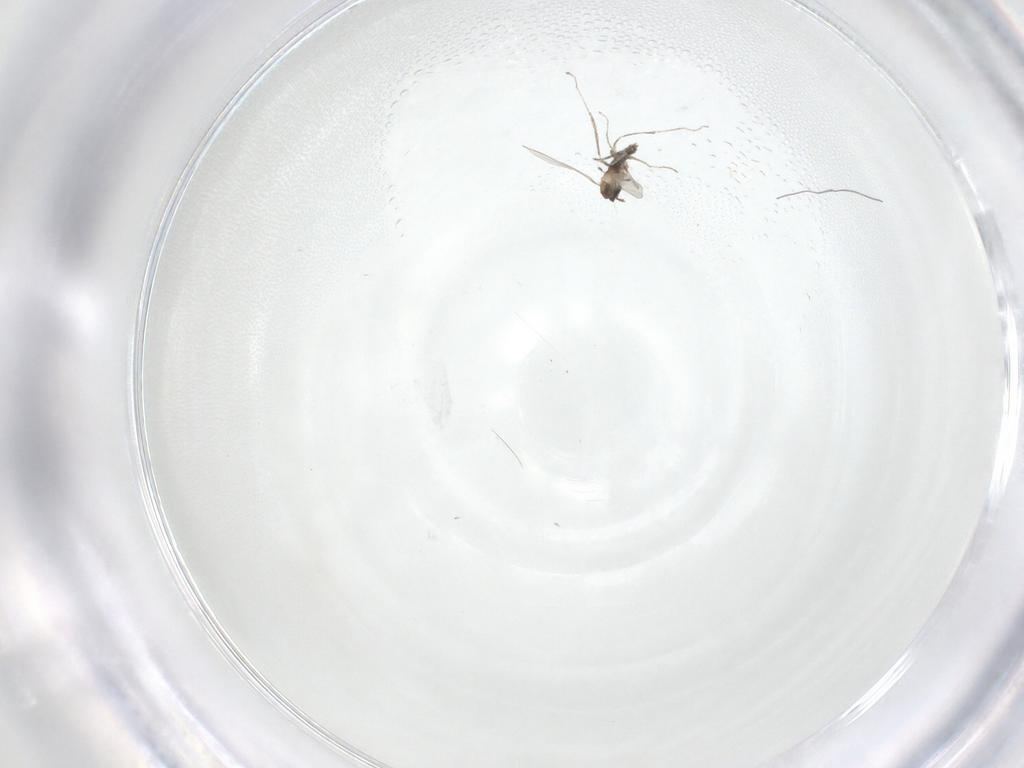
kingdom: Animalia
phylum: Arthropoda
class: Insecta
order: Diptera
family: Cecidomyiidae
